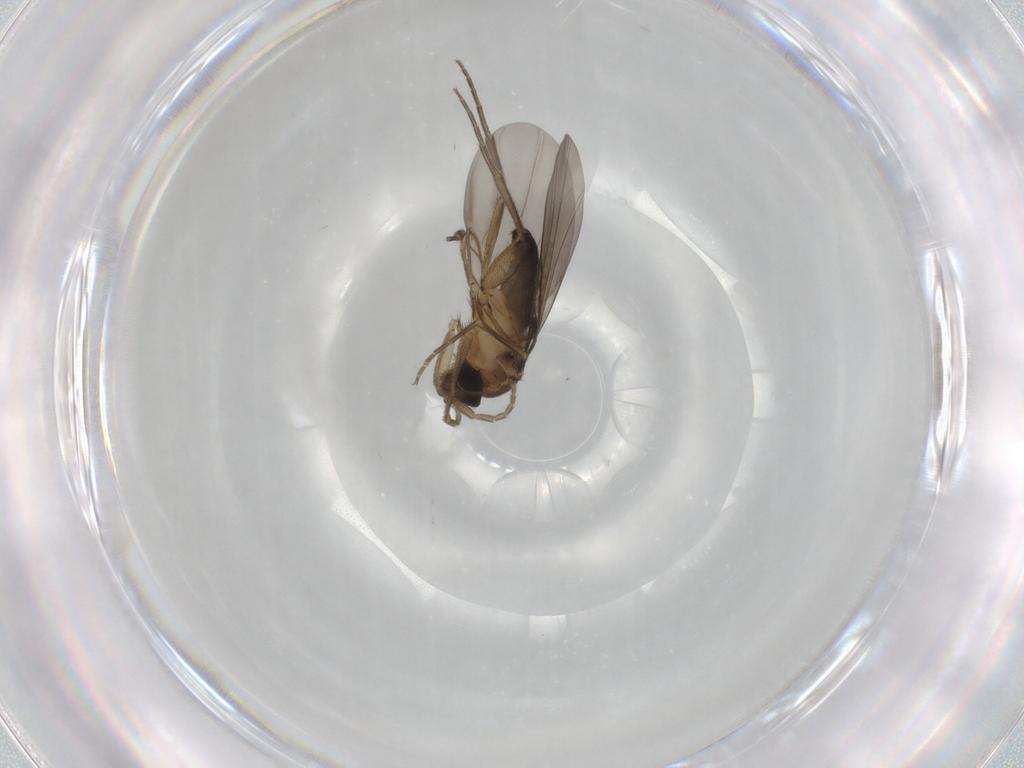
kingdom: Animalia
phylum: Arthropoda
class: Insecta
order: Diptera
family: Phoridae
